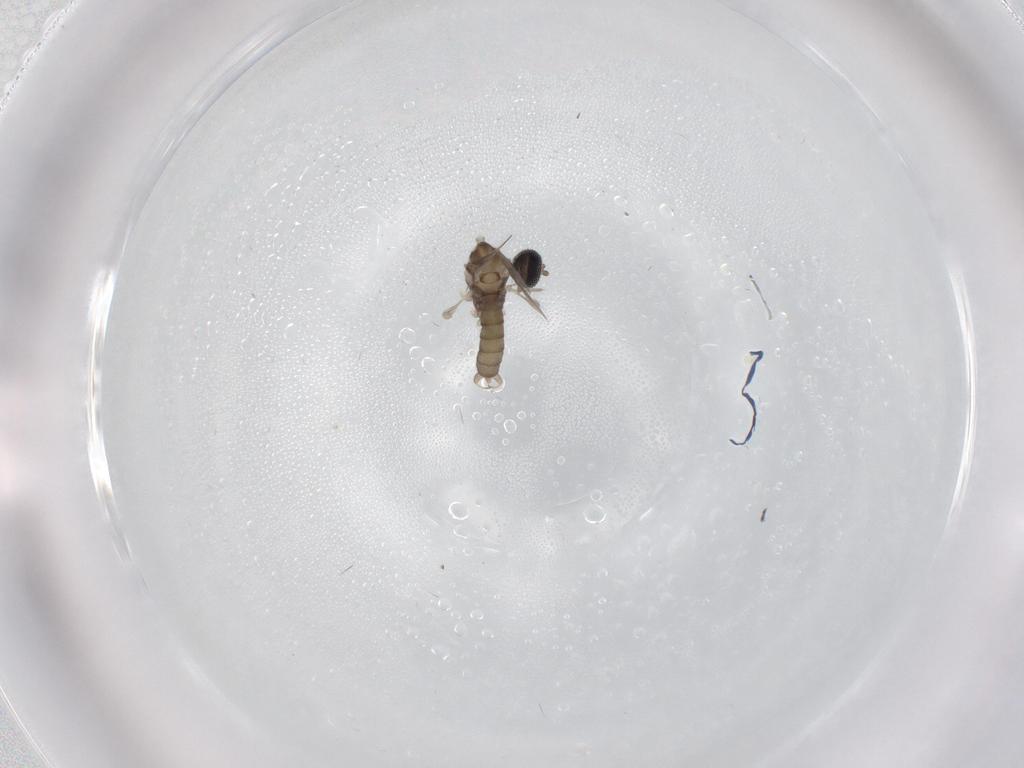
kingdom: Animalia
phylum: Arthropoda
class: Insecta
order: Diptera
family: Cecidomyiidae
